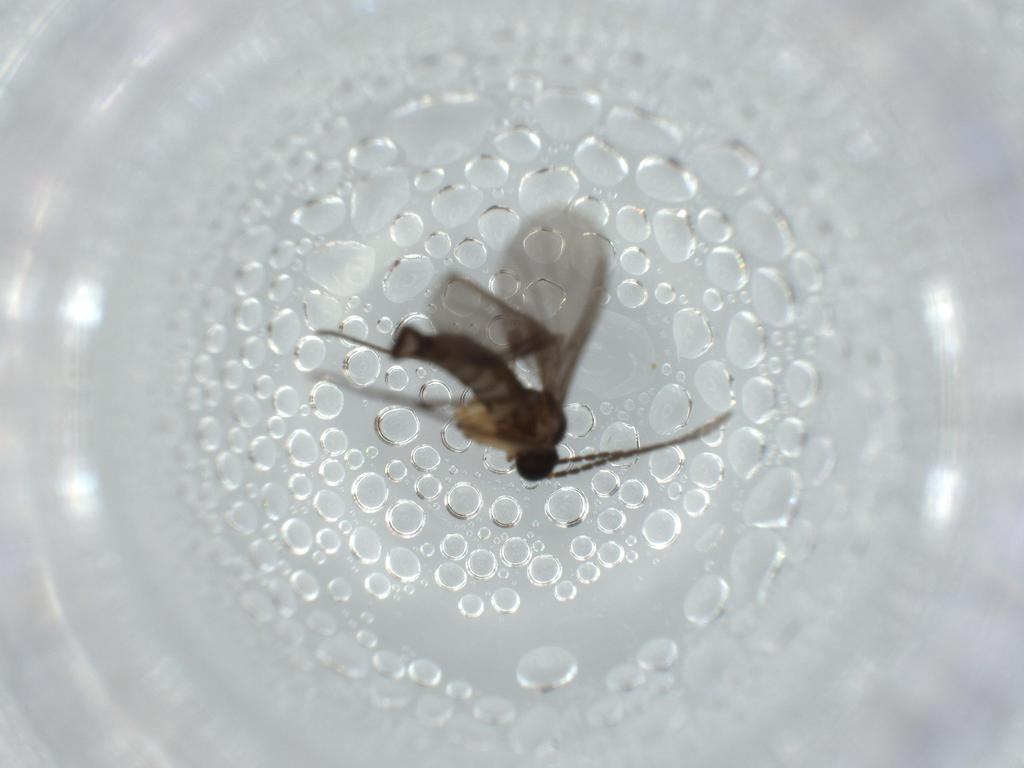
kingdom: Animalia
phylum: Arthropoda
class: Insecta
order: Diptera
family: Sciaridae
